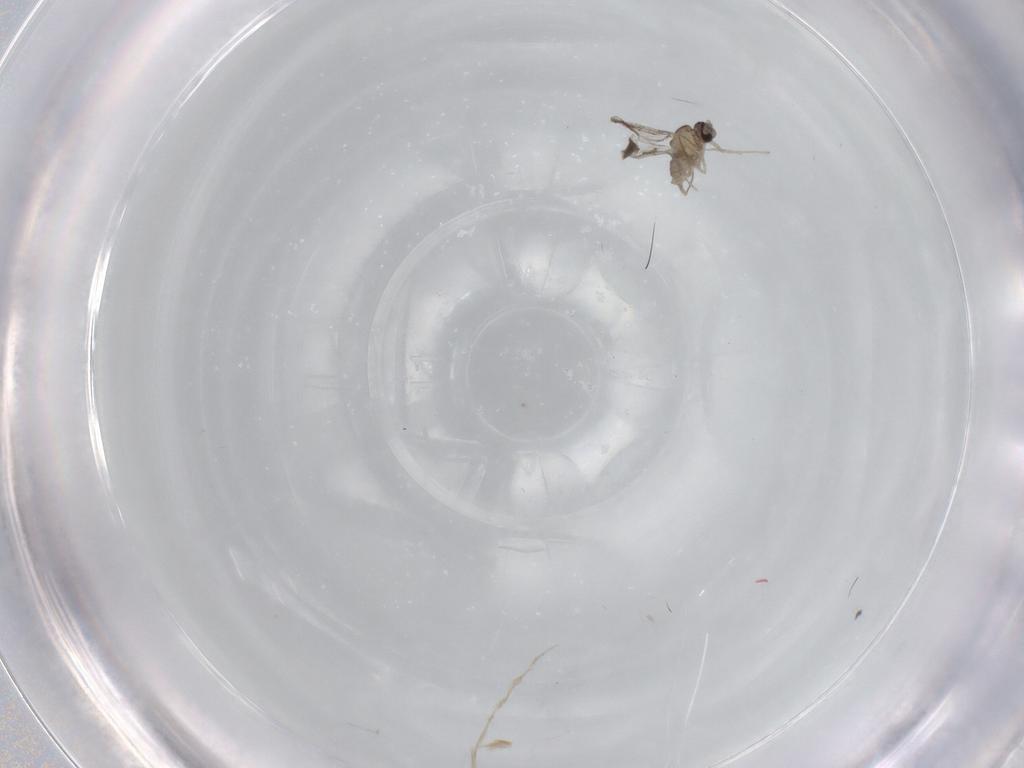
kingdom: Animalia
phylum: Arthropoda
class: Insecta
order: Diptera
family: Cecidomyiidae
